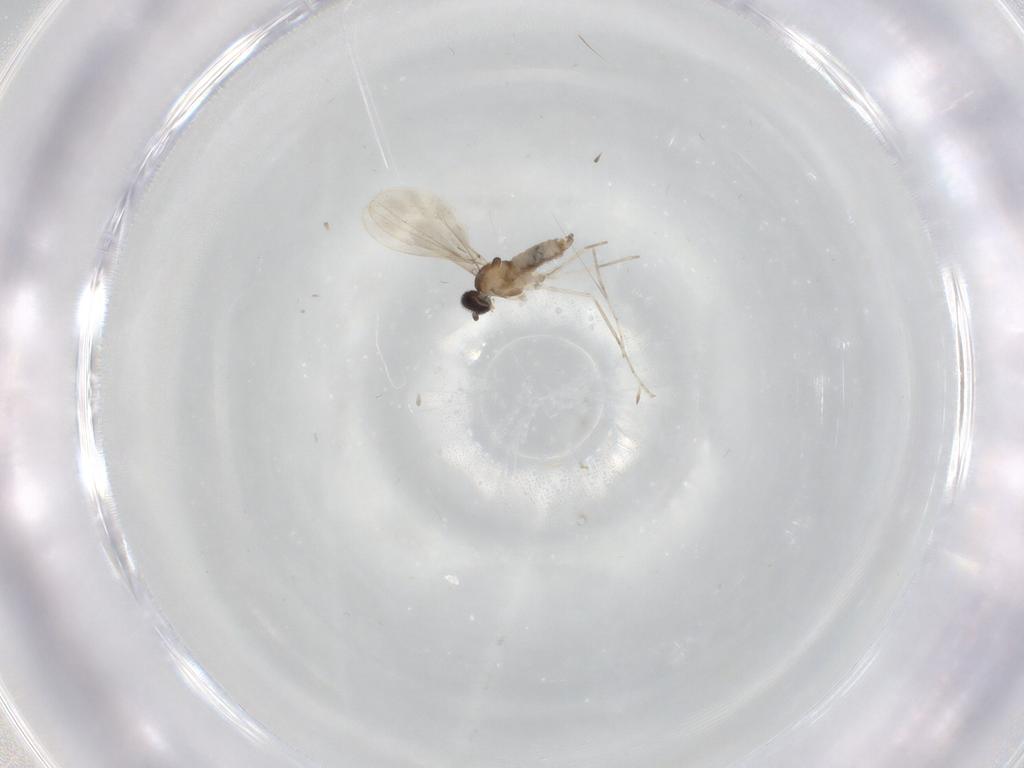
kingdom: Animalia
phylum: Arthropoda
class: Insecta
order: Diptera
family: Cecidomyiidae
